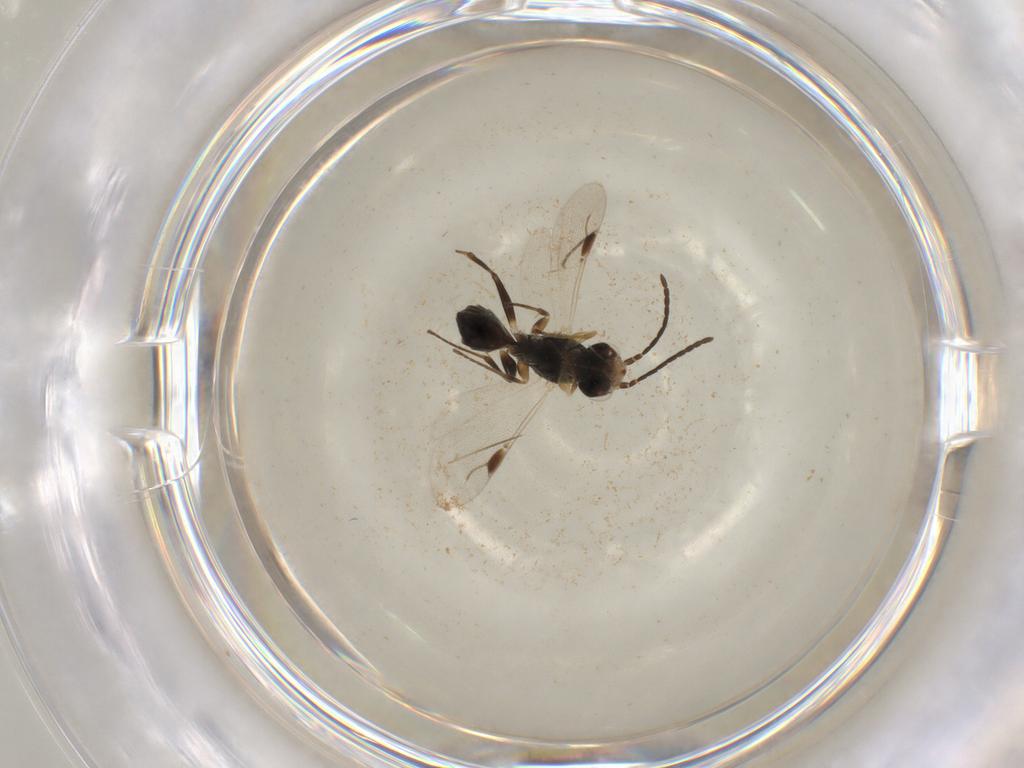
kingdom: Animalia
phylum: Arthropoda
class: Insecta
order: Hymenoptera
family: Dryinidae
